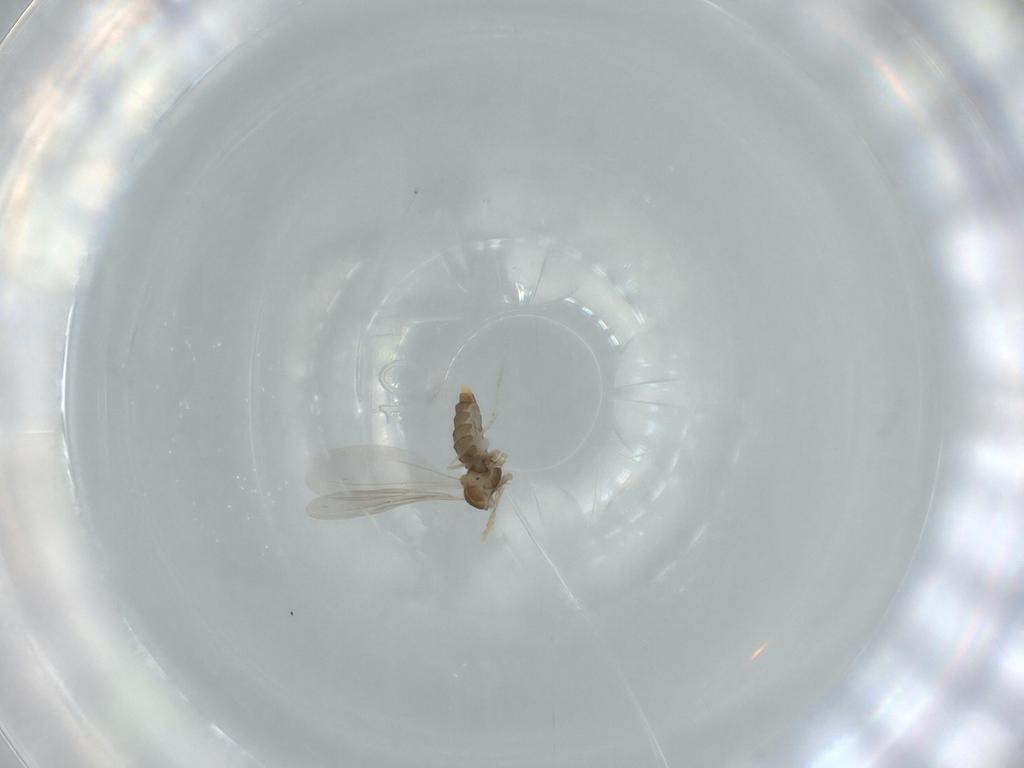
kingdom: Animalia
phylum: Arthropoda
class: Insecta
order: Diptera
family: Cecidomyiidae
